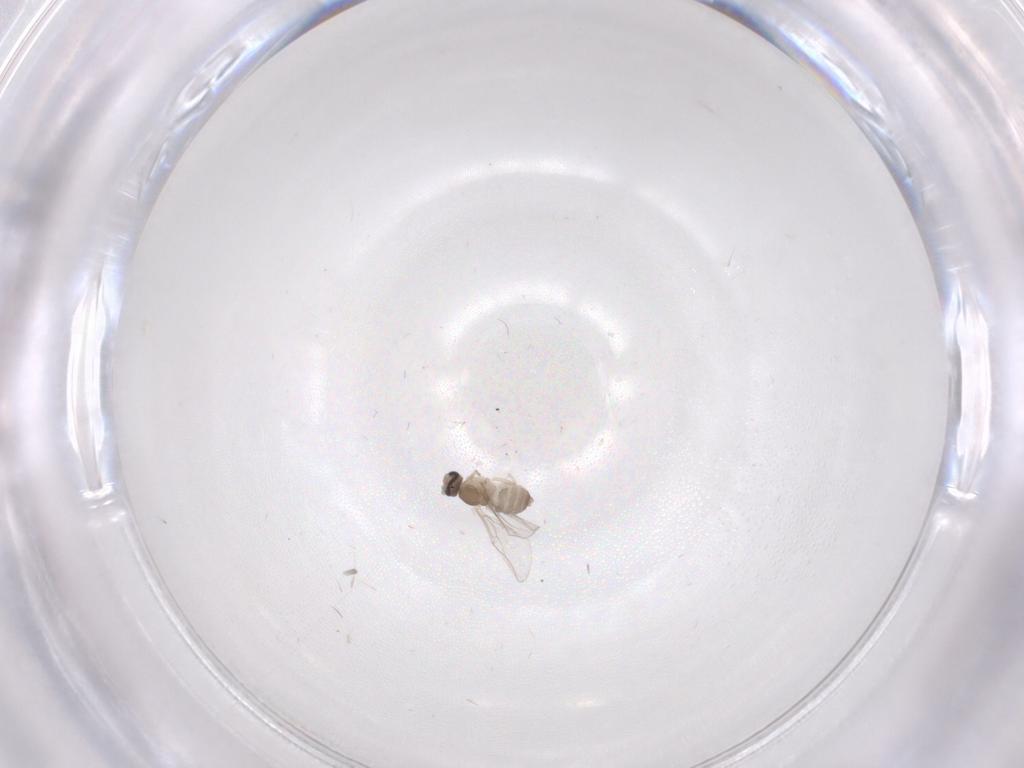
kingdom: Animalia
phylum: Arthropoda
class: Insecta
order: Diptera
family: Cecidomyiidae
